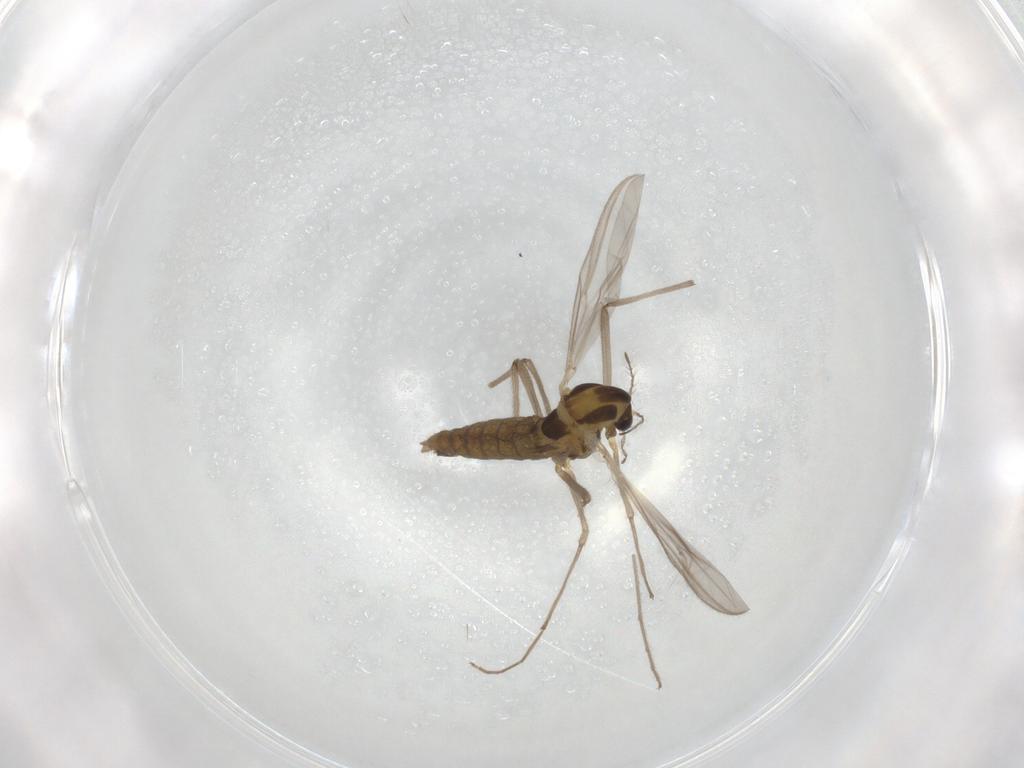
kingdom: Animalia
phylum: Arthropoda
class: Insecta
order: Diptera
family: Chironomidae
